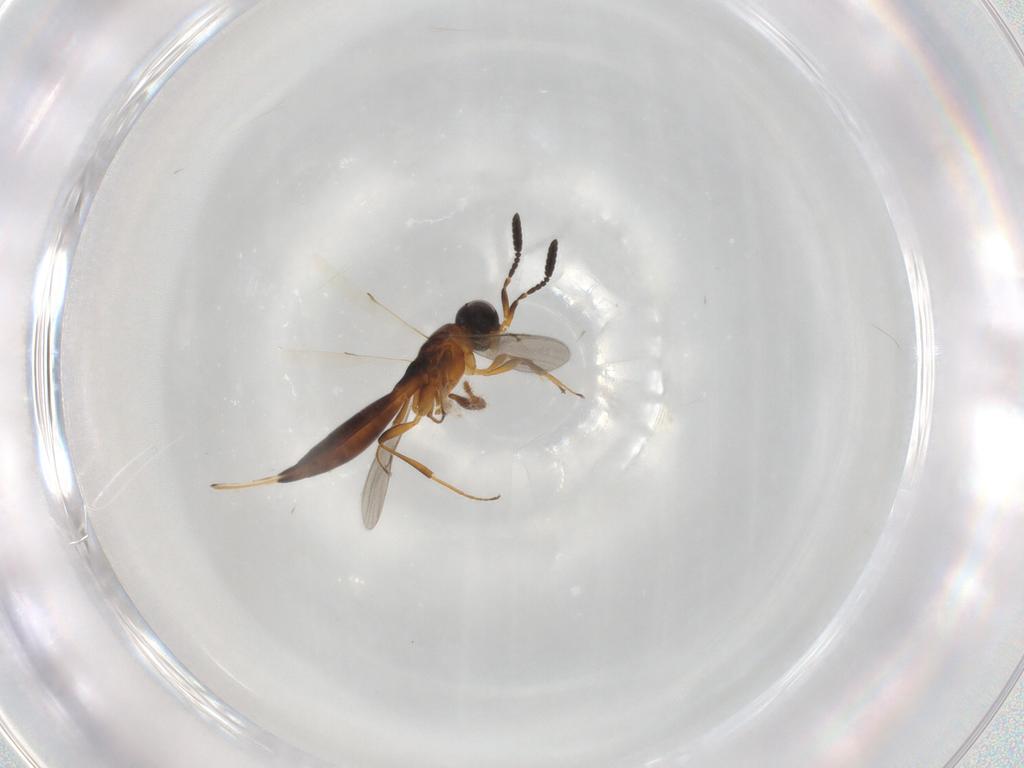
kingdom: Animalia
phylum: Arthropoda
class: Insecta
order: Hymenoptera
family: Scelionidae
